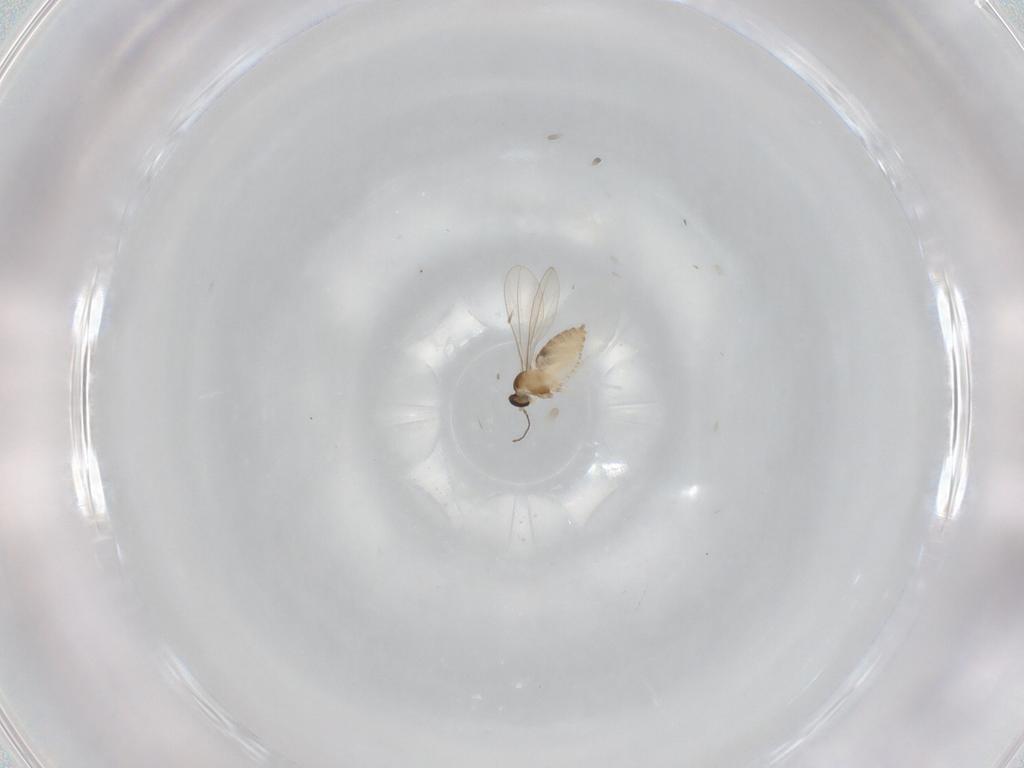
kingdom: Animalia
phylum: Arthropoda
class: Insecta
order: Diptera
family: Cecidomyiidae
